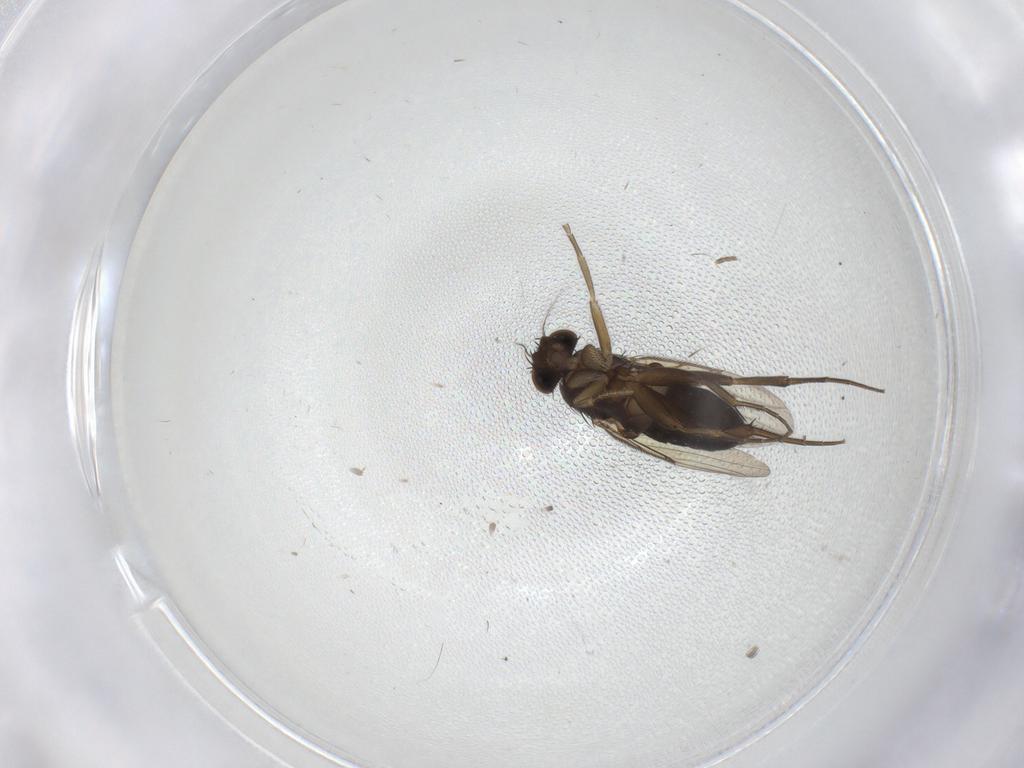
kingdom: Animalia
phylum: Arthropoda
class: Insecta
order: Diptera
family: Phoridae
